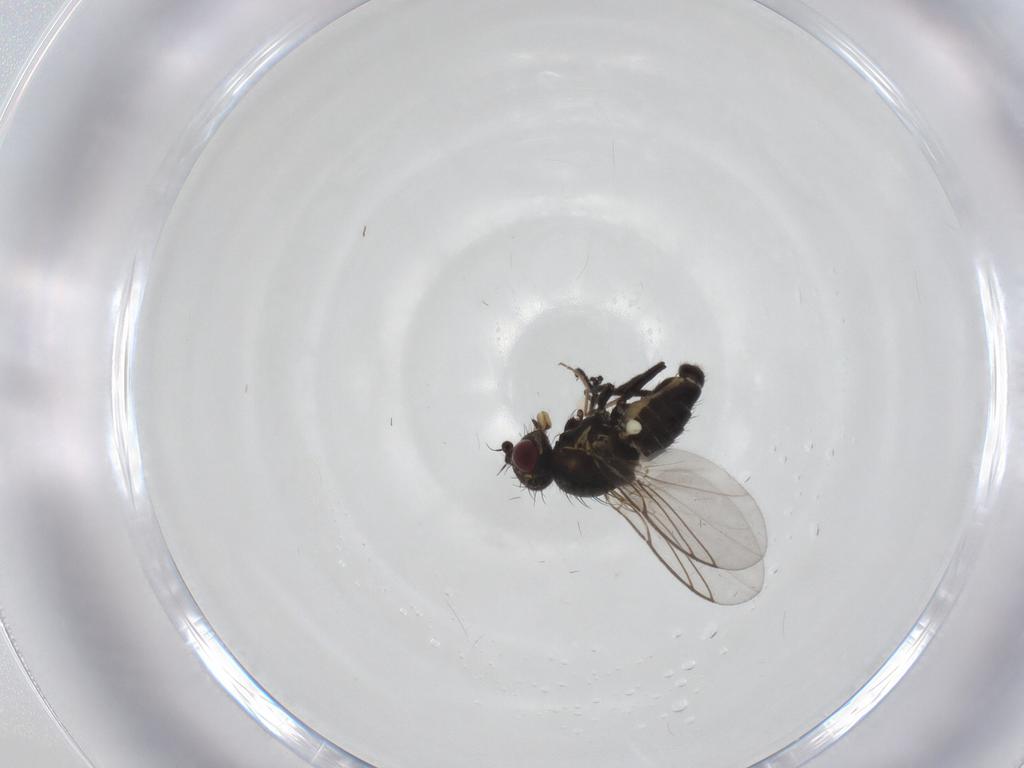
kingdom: Animalia
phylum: Arthropoda
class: Insecta
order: Diptera
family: Agromyzidae
